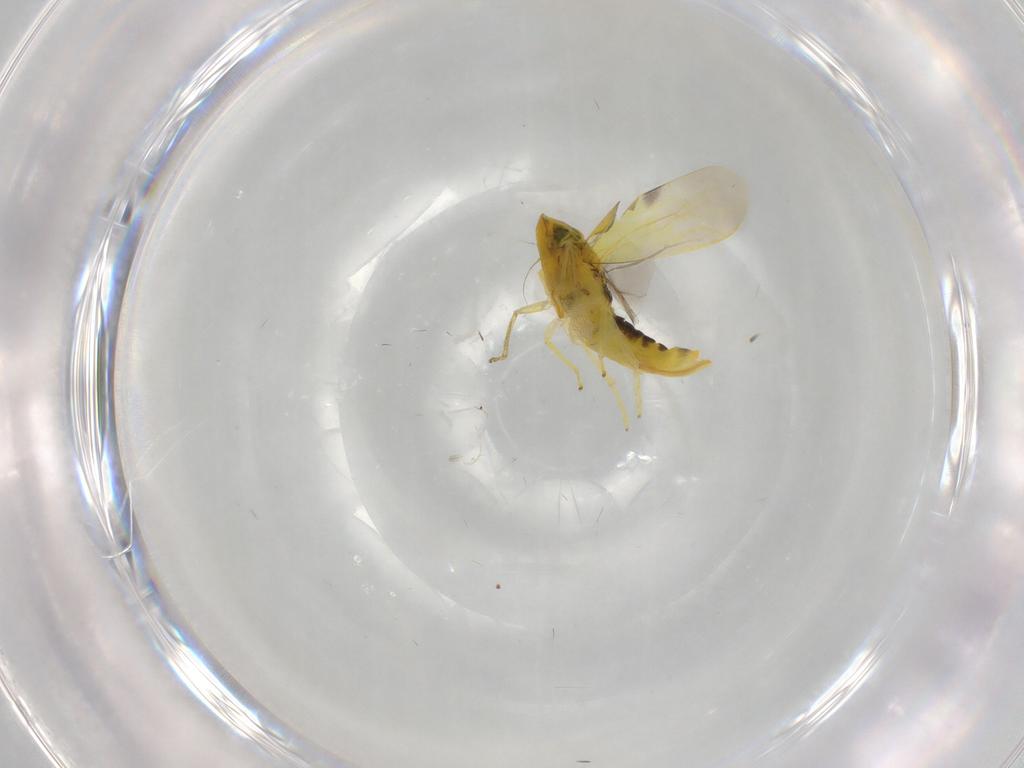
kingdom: Animalia
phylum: Arthropoda
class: Insecta
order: Hemiptera
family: Cicadellidae
